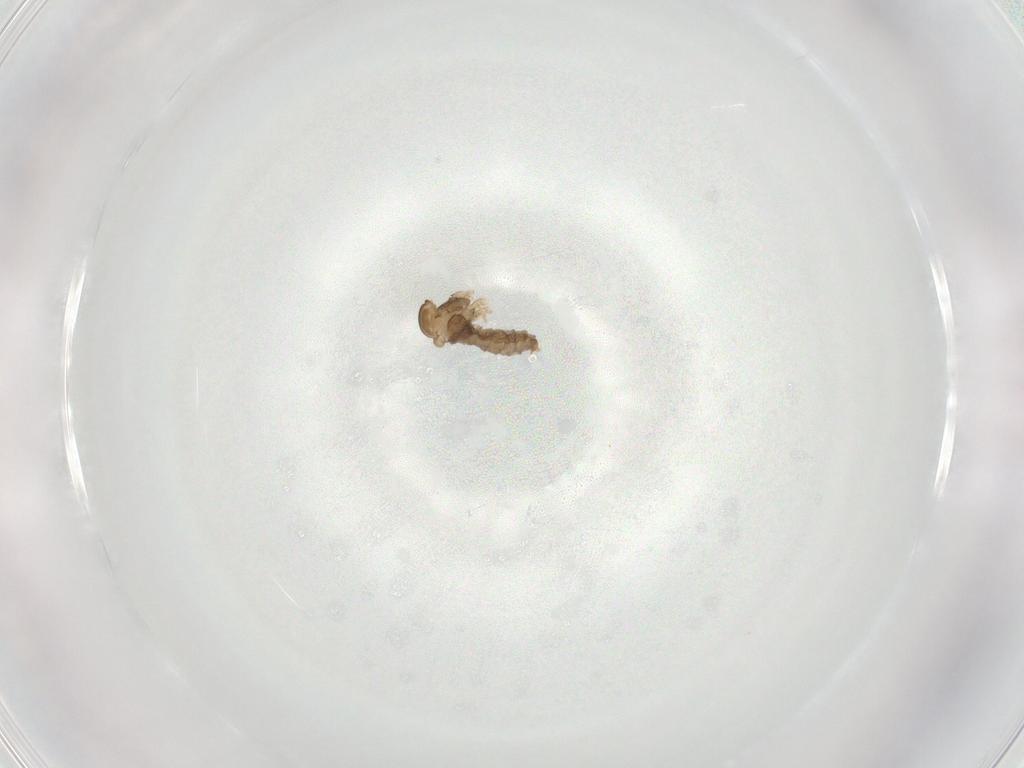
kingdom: Animalia
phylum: Arthropoda
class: Insecta
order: Diptera
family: Cecidomyiidae
